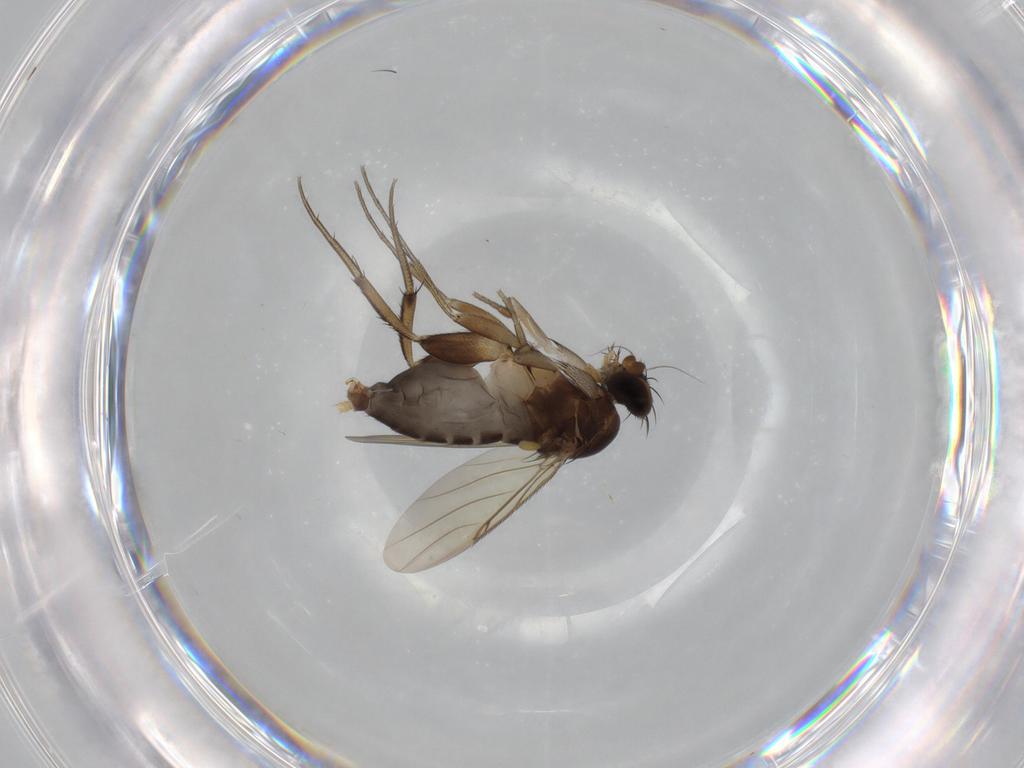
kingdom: Animalia
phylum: Arthropoda
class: Insecta
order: Diptera
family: Phoridae
